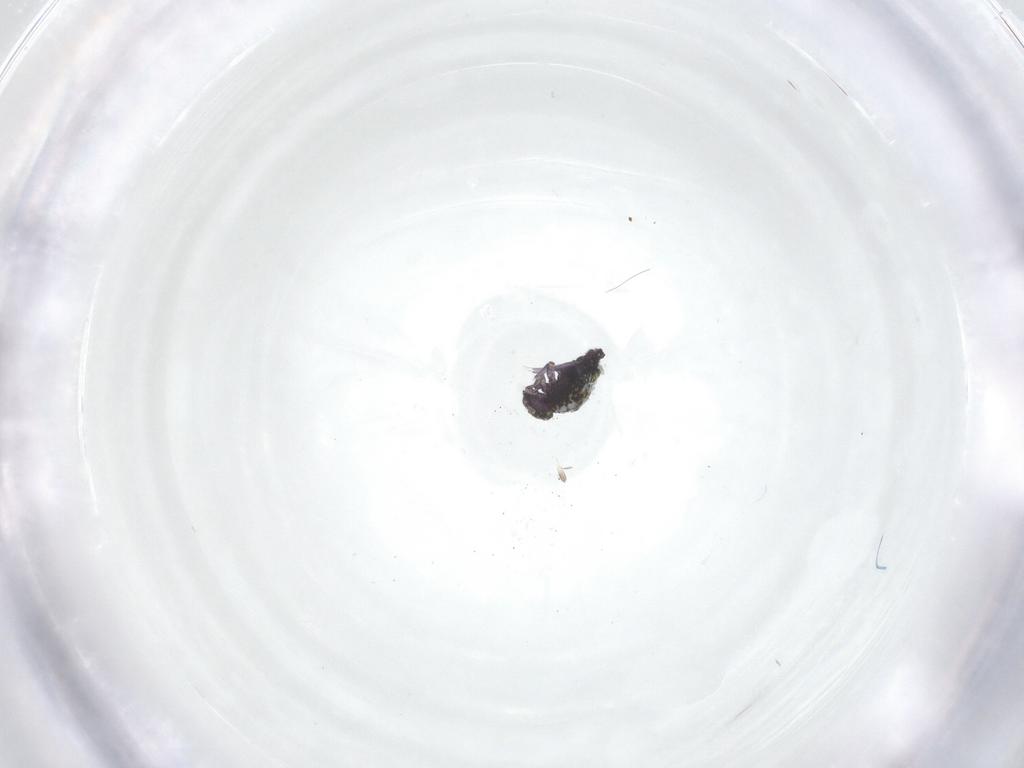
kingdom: Animalia
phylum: Arthropoda
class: Collembola
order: Symphypleona
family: Bourletiellidae
